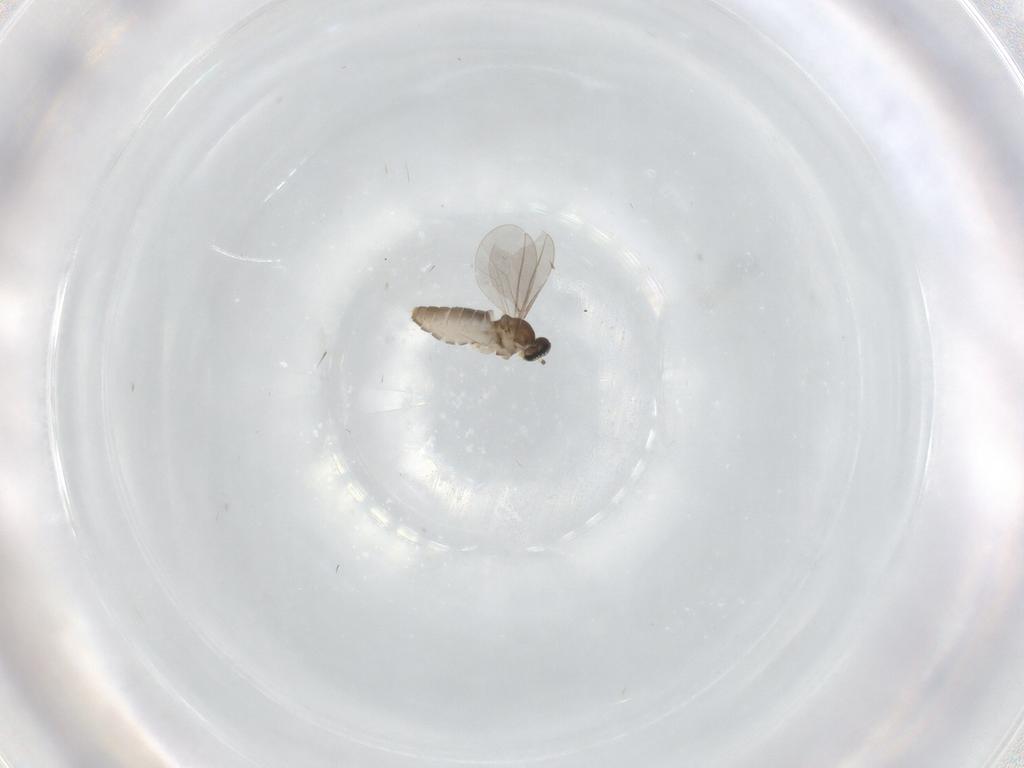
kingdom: Animalia
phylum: Arthropoda
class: Insecta
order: Diptera
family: Cecidomyiidae
